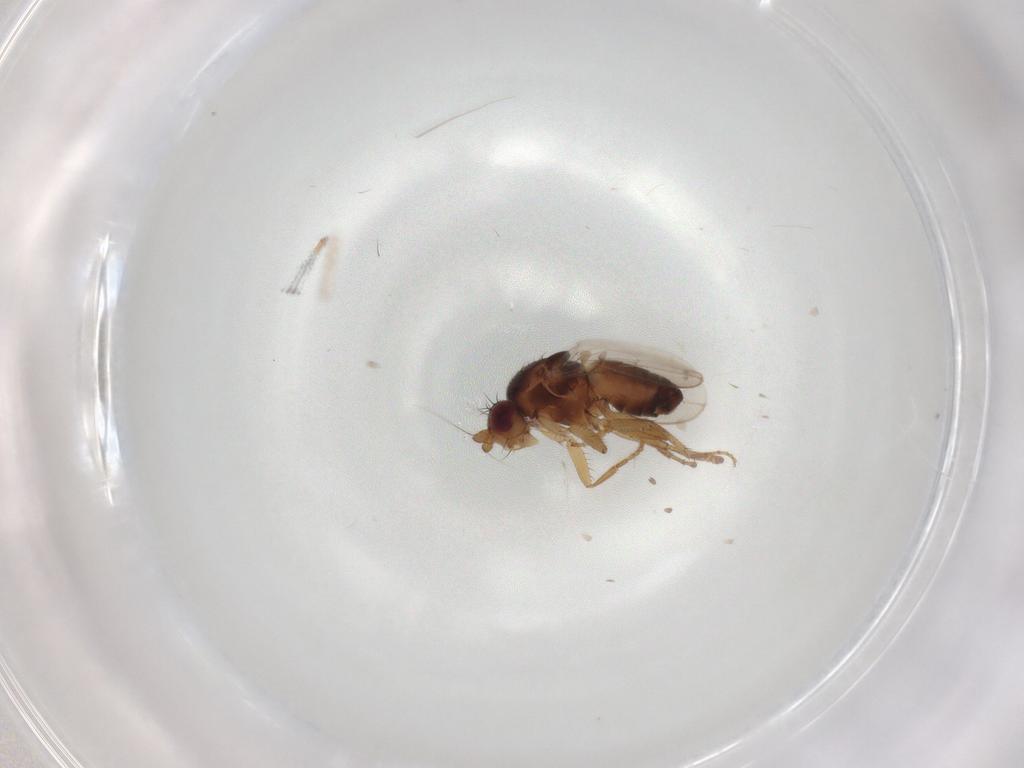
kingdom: Animalia
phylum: Arthropoda
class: Insecta
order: Diptera
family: Sphaeroceridae
